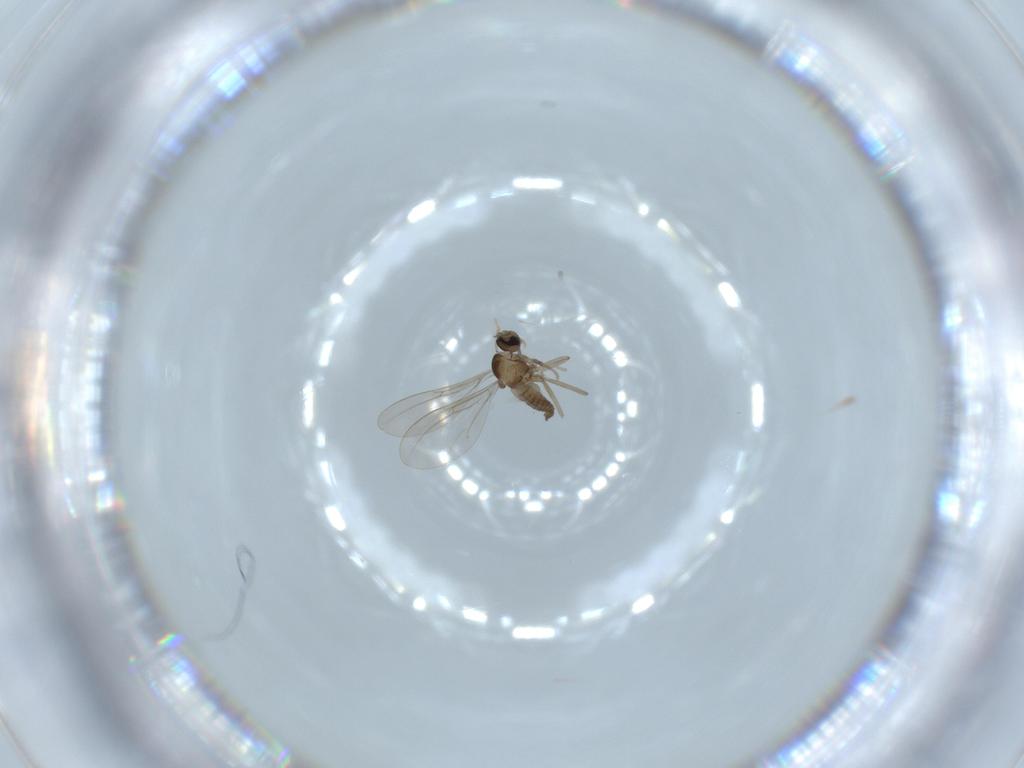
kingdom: Animalia
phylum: Arthropoda
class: Insecta
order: Diptera
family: Cecidomyiidae
